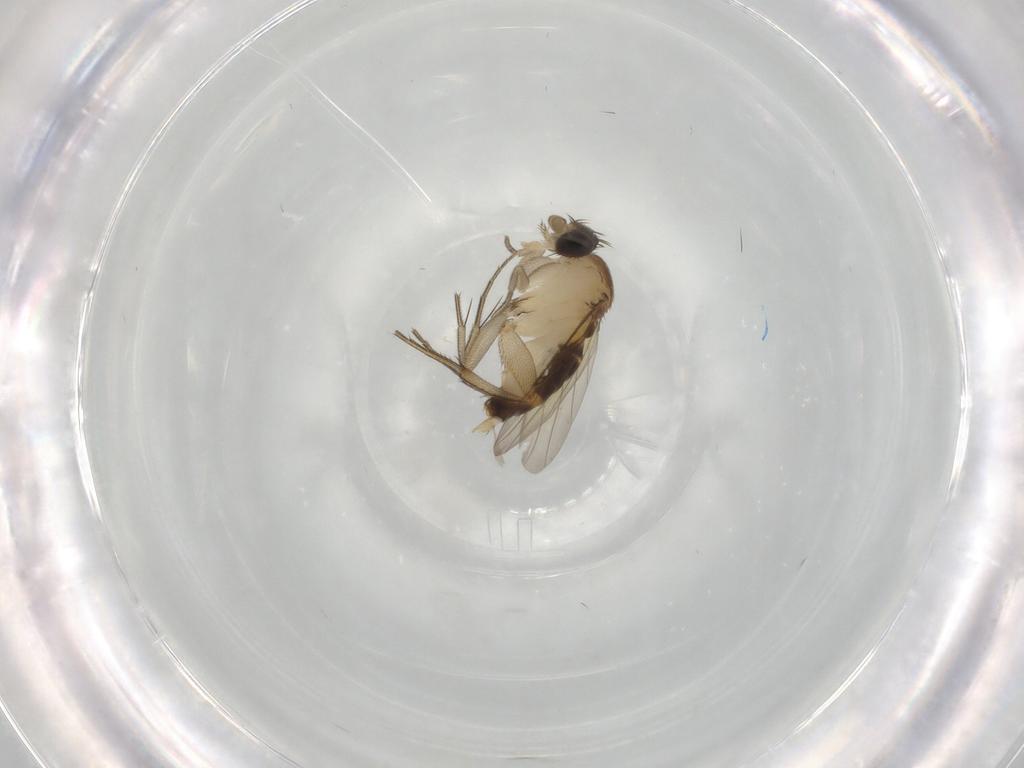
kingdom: Animalia
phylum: Arthropoda
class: Insecta
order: Diptera
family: Phoridae
